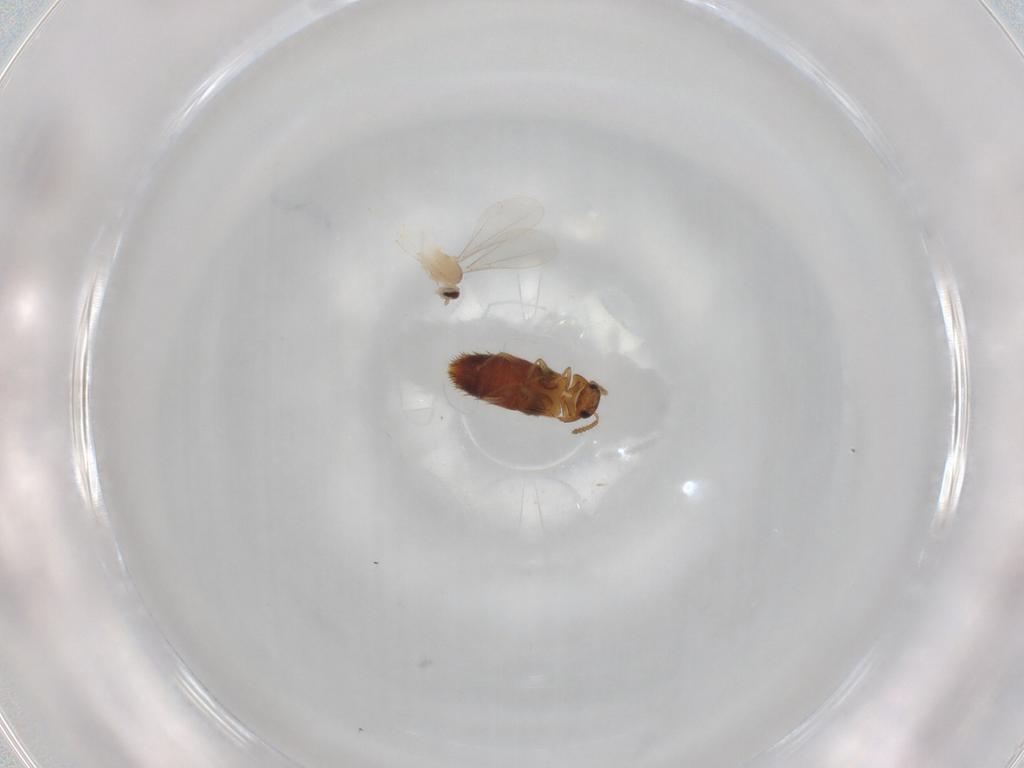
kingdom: Animalia
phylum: Arthropoda
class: Insecta
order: Diptera
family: Cecidomyiidae
